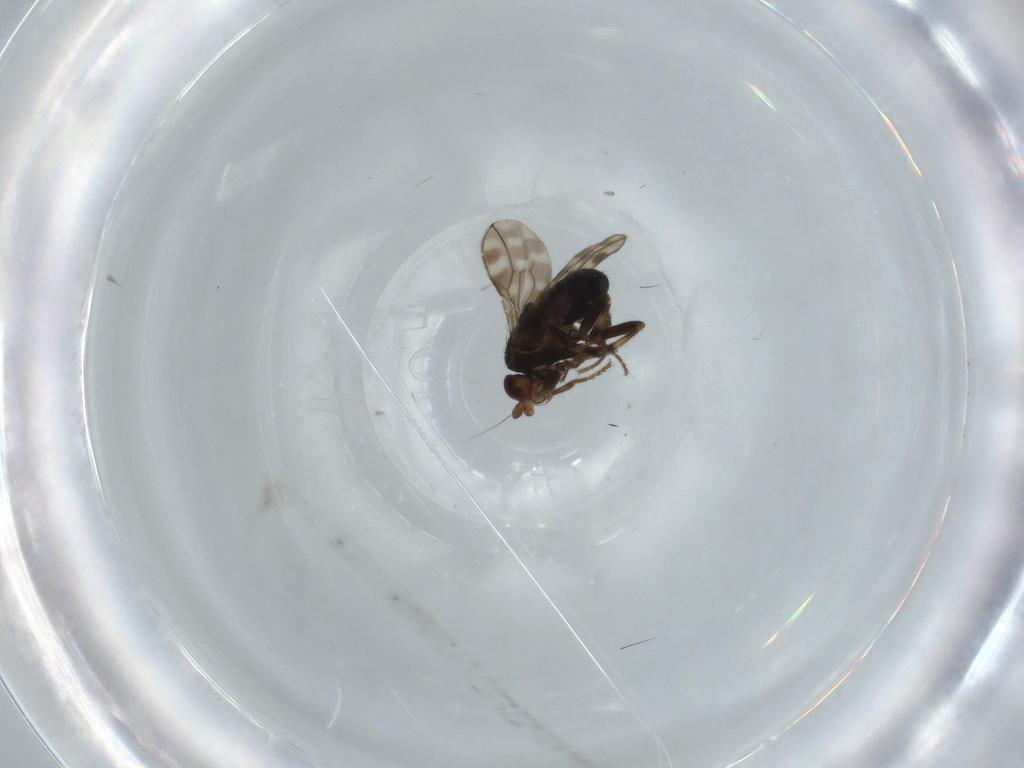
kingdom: Animalia
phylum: Arthropoda
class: Insecta
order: Diptera
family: Sphaeroceridae
